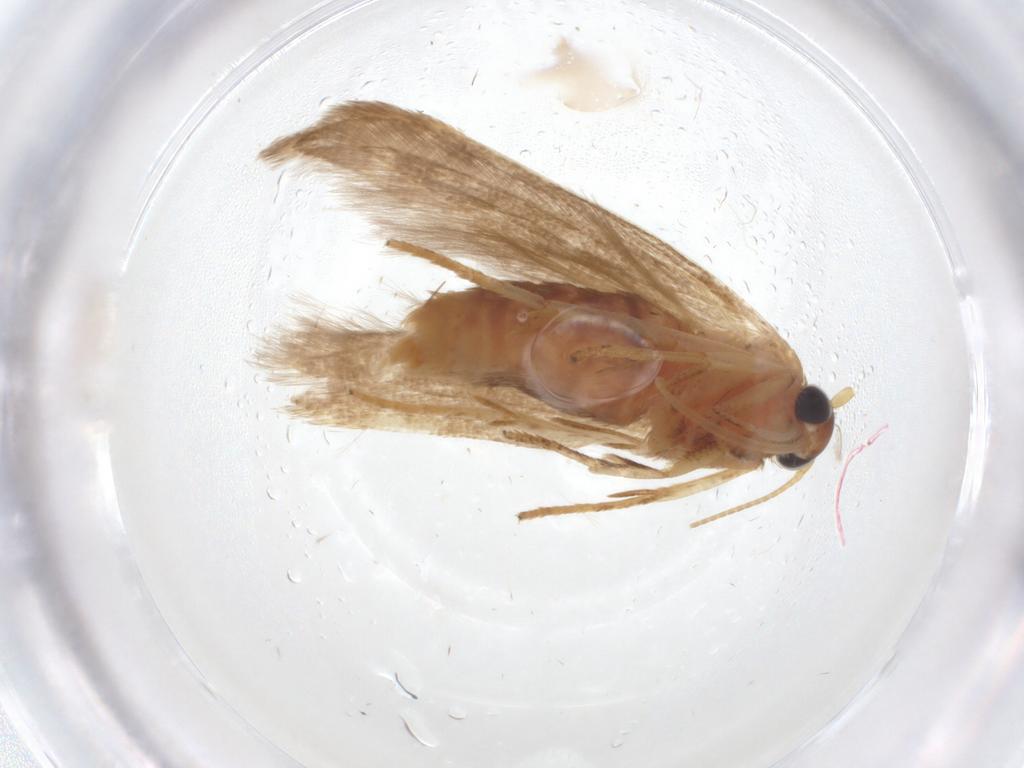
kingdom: Animalia
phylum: Arthropoda
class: Insecta
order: Lepidoptera
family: Blastobasidae
